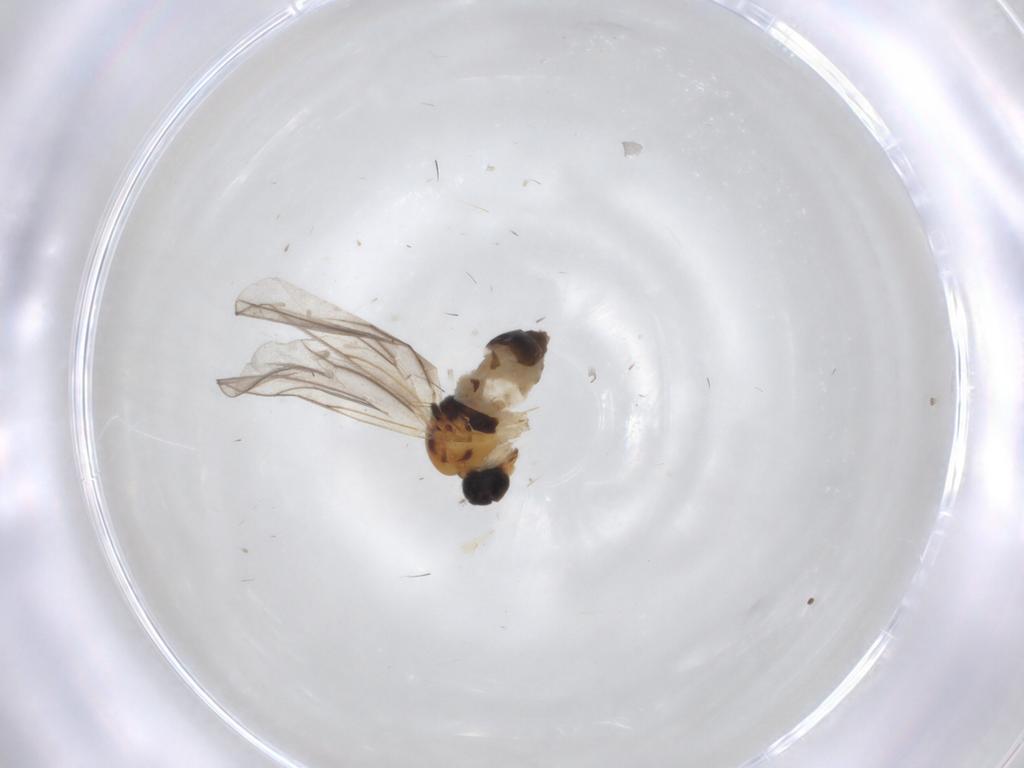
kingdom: Animalia
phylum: Arthropoda
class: Insecta
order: Diptera
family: Hybotidae
